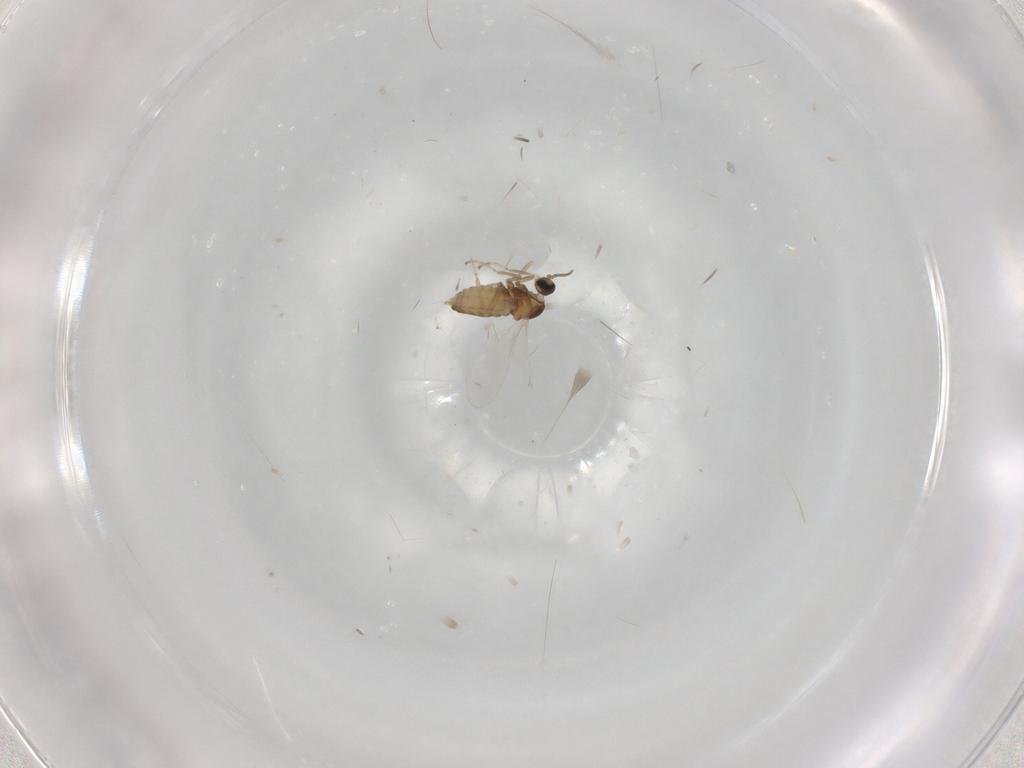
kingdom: Animalia
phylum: Arthropoda
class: Insecta
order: Diptera
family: Cecidomyiidae
